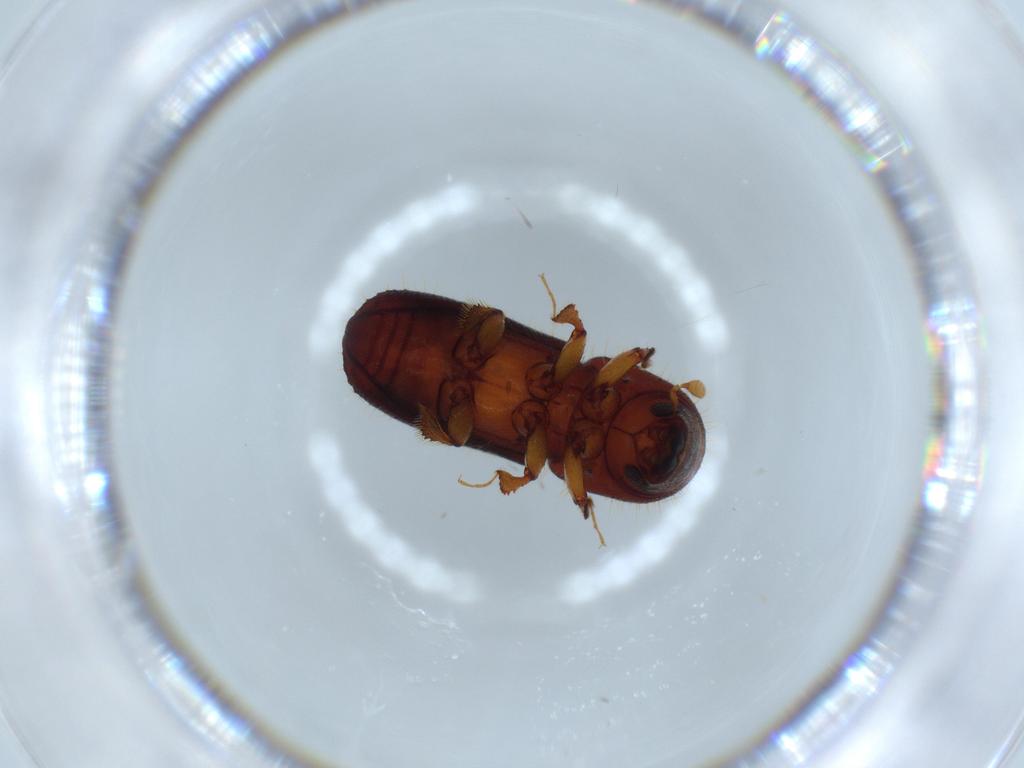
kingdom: Animalia
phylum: Arthropoda
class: Insecta
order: Coleoptera
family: Curculionidae
